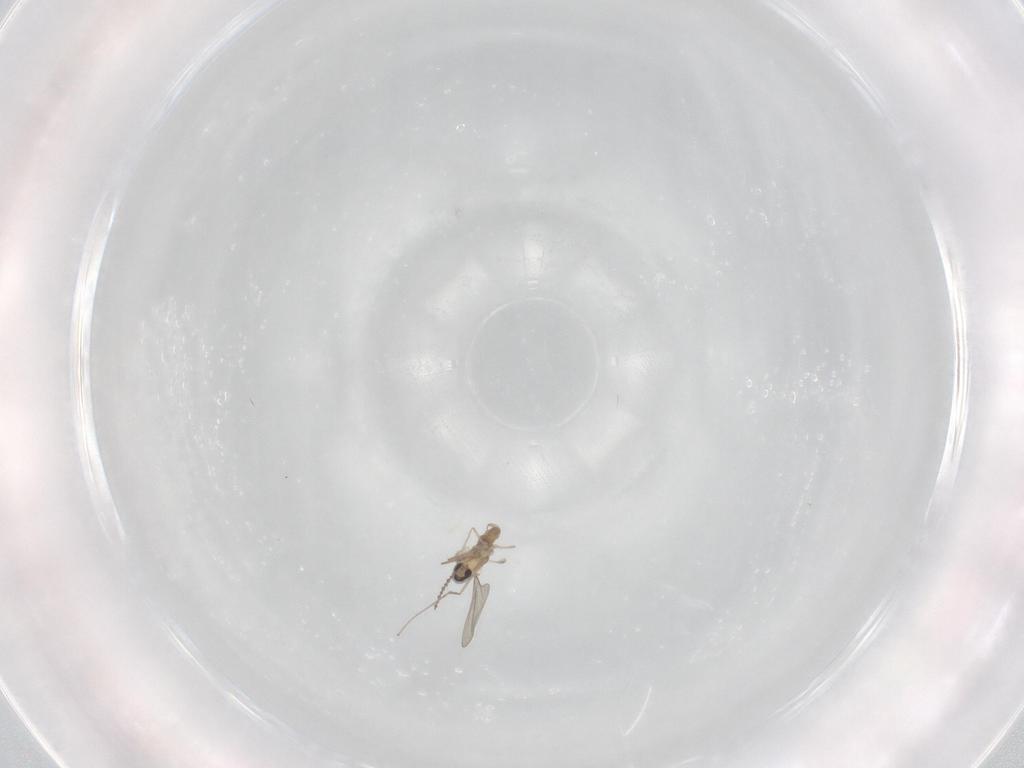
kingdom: Animalia
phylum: Arthropoda
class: Insecta
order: Diptera
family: Cecidomyiidae
